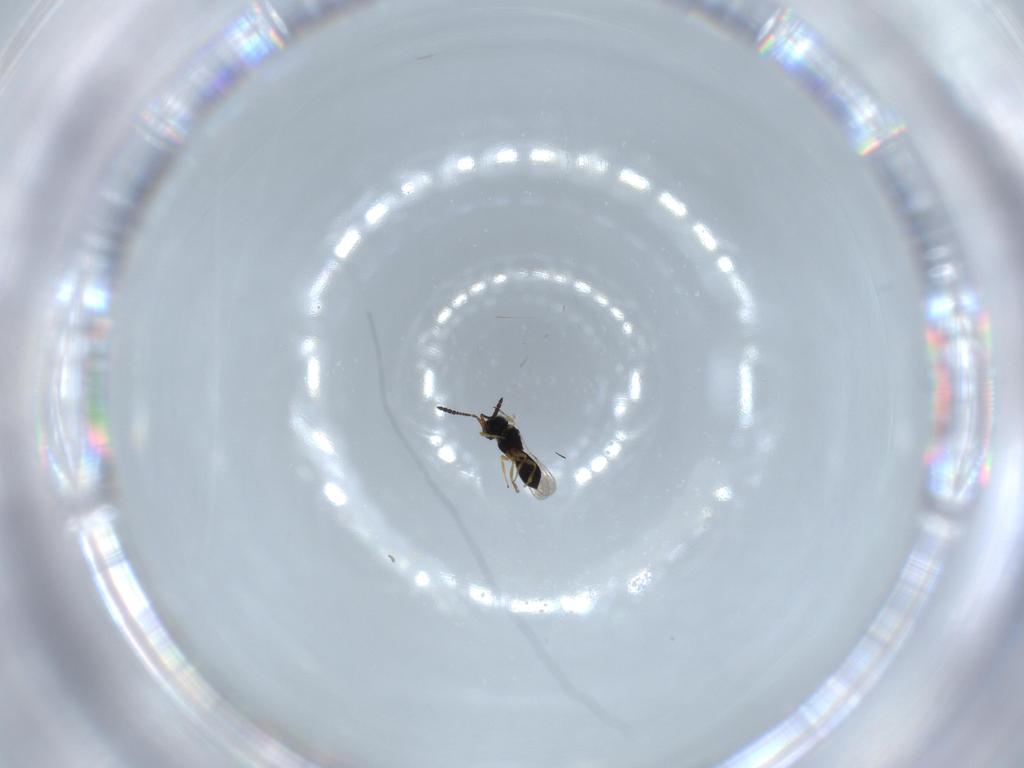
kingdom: Animalia
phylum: Arthropoda
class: Insecta
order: Hymenoptera
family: Scelionidae
